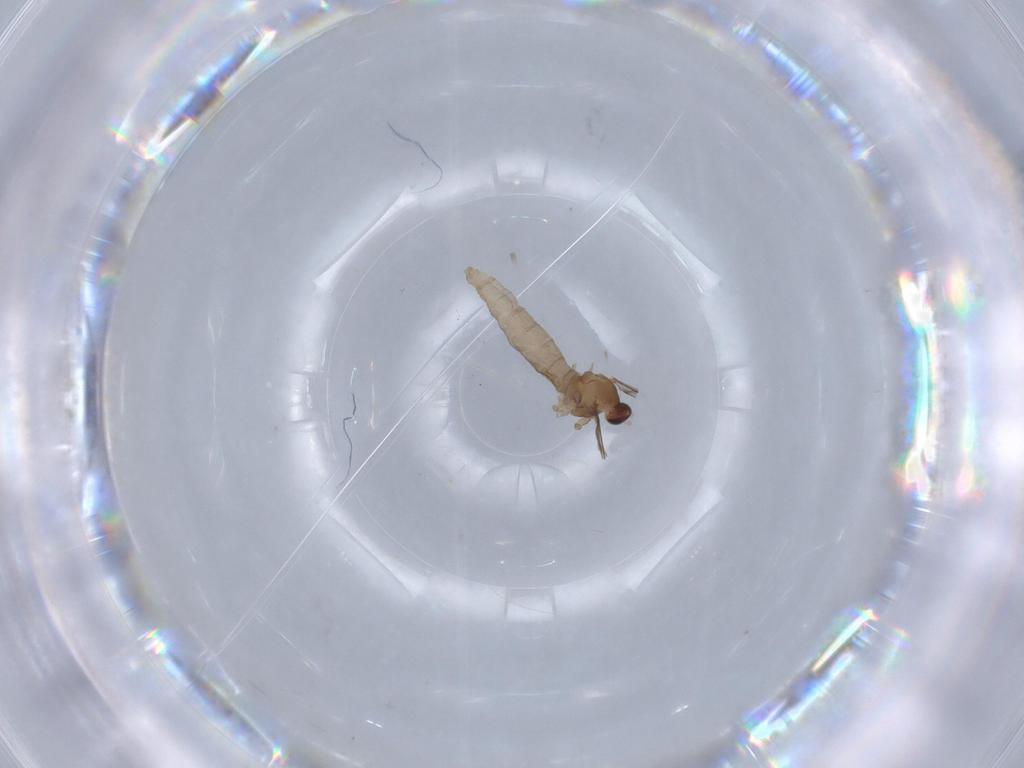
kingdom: Animalia
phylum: Arthropoda
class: Insecta
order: Diptera
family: Cecidomyiidae
